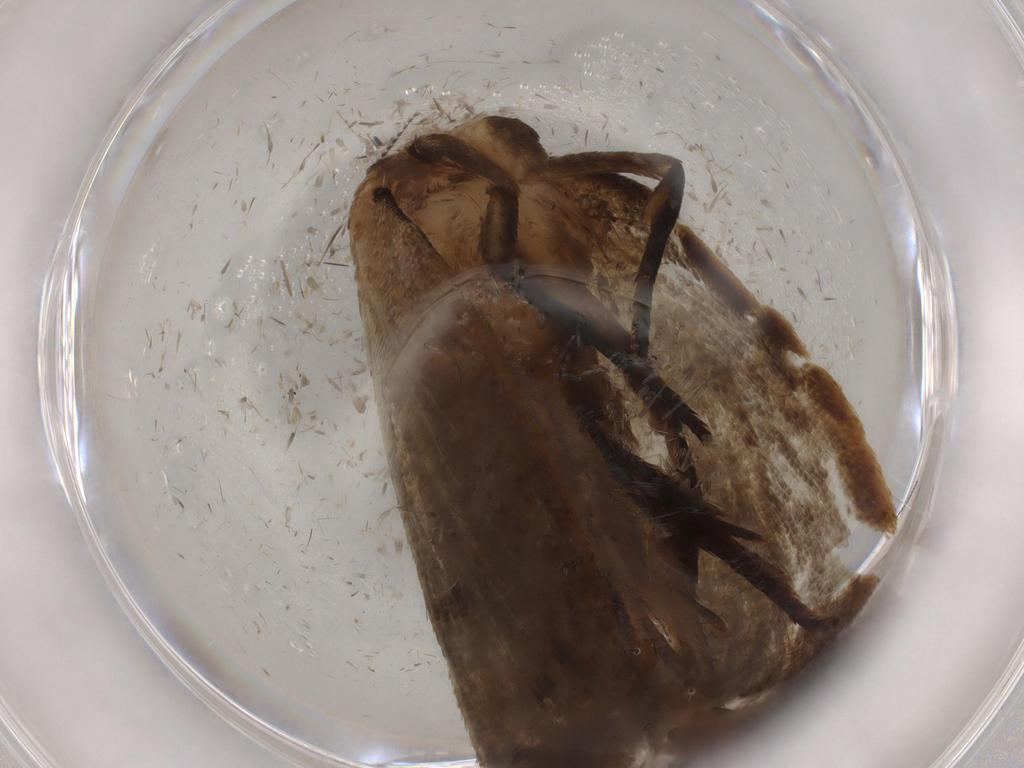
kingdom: Animalia
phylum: Arthropoda
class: Insecta
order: Lepidoptera
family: Oecophoridae
